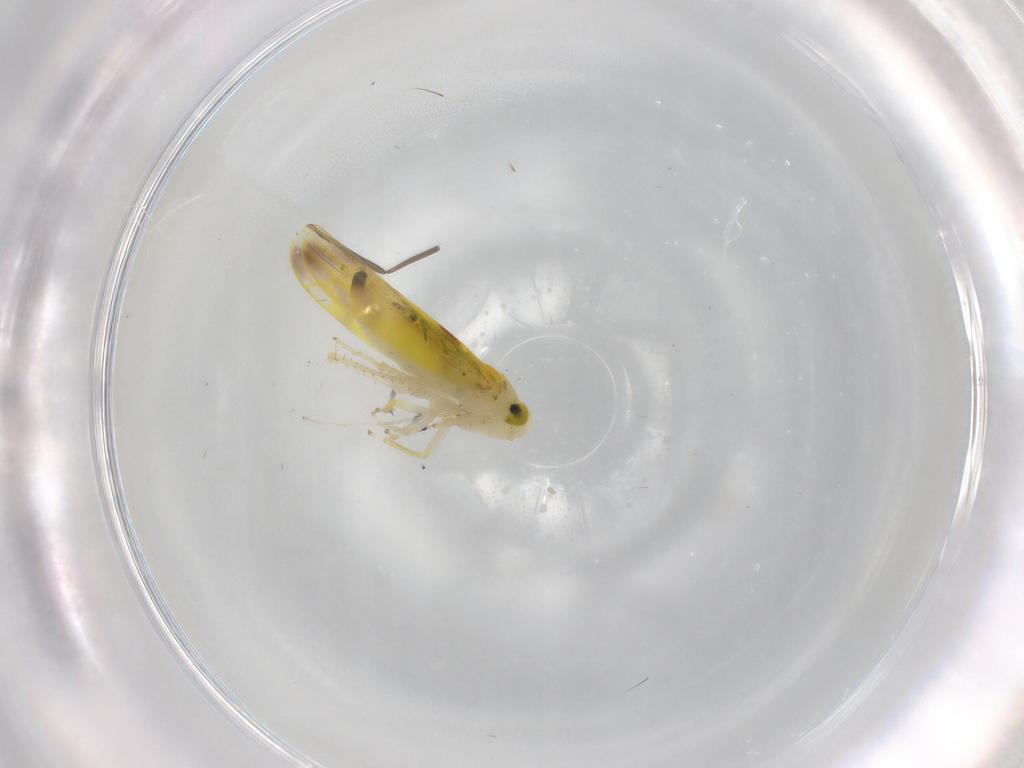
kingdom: Animalia
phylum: Arthropoda
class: Insecta
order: Hemiptera
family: Cicadellidae
